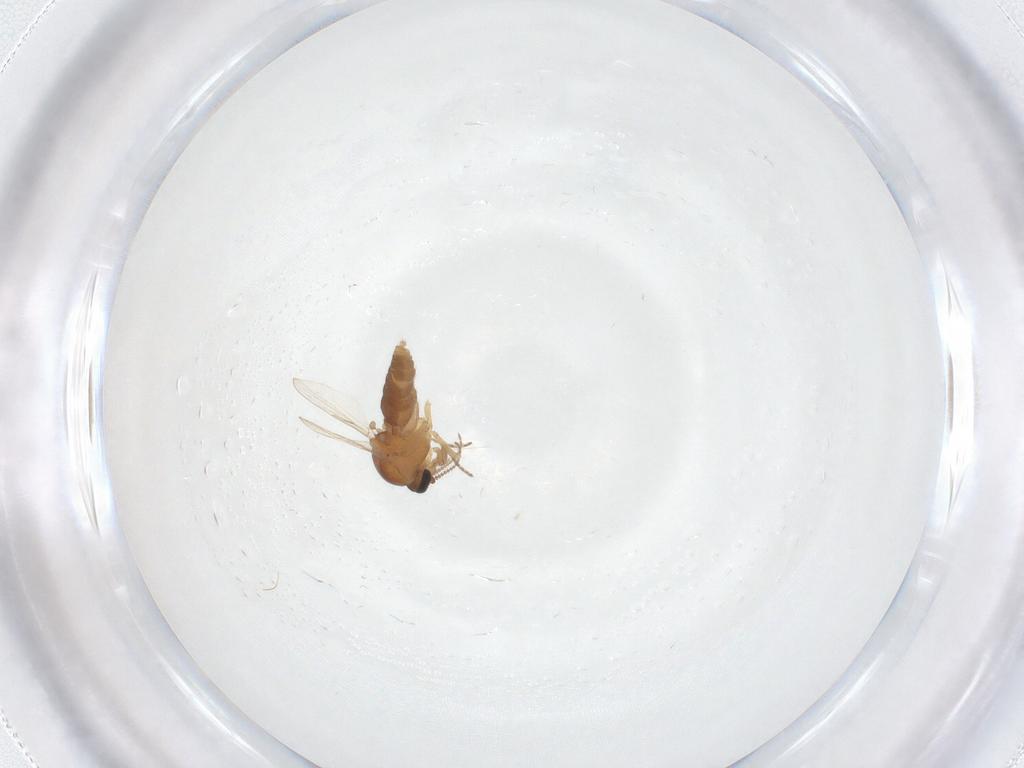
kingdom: Animalia
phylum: Arthropoda
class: Insecta
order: Diptera
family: Ceratopogonidae
